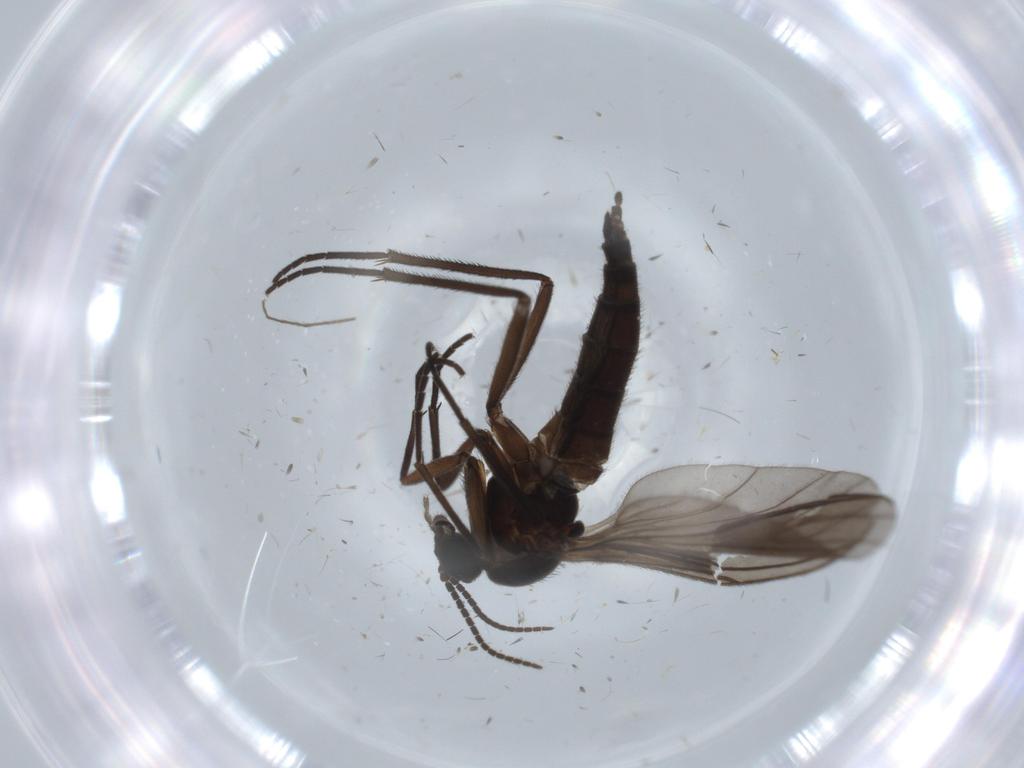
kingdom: Animalia
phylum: Arthropoda
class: Insecta
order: Diptera
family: Sciaridae
